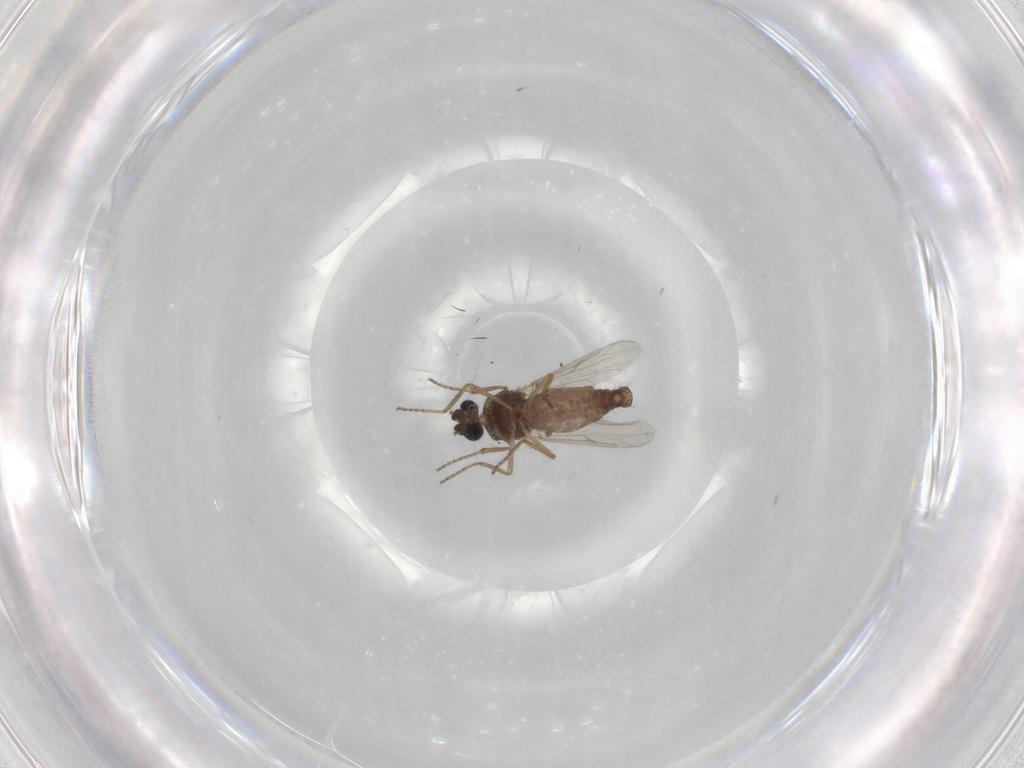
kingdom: Animalia
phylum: Arthropoda
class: Insecta
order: Diptera
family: Ceratopogonidae
